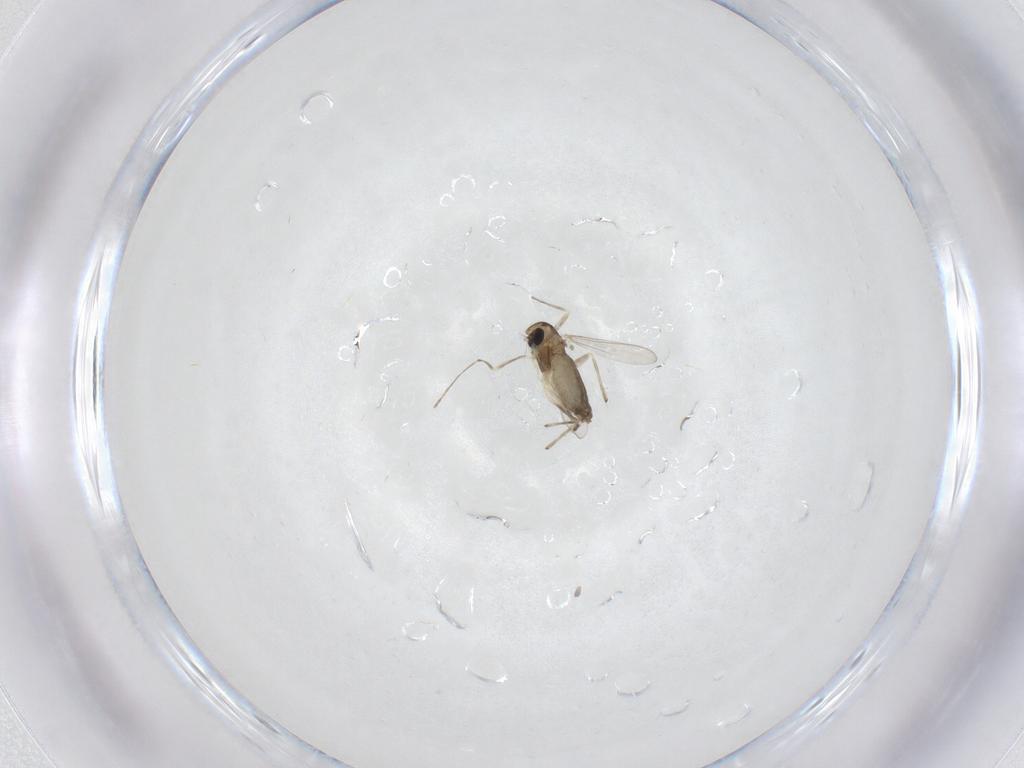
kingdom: Animalia
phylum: Arthropoda
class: Insecta
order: Diptera
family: Chironomidae
